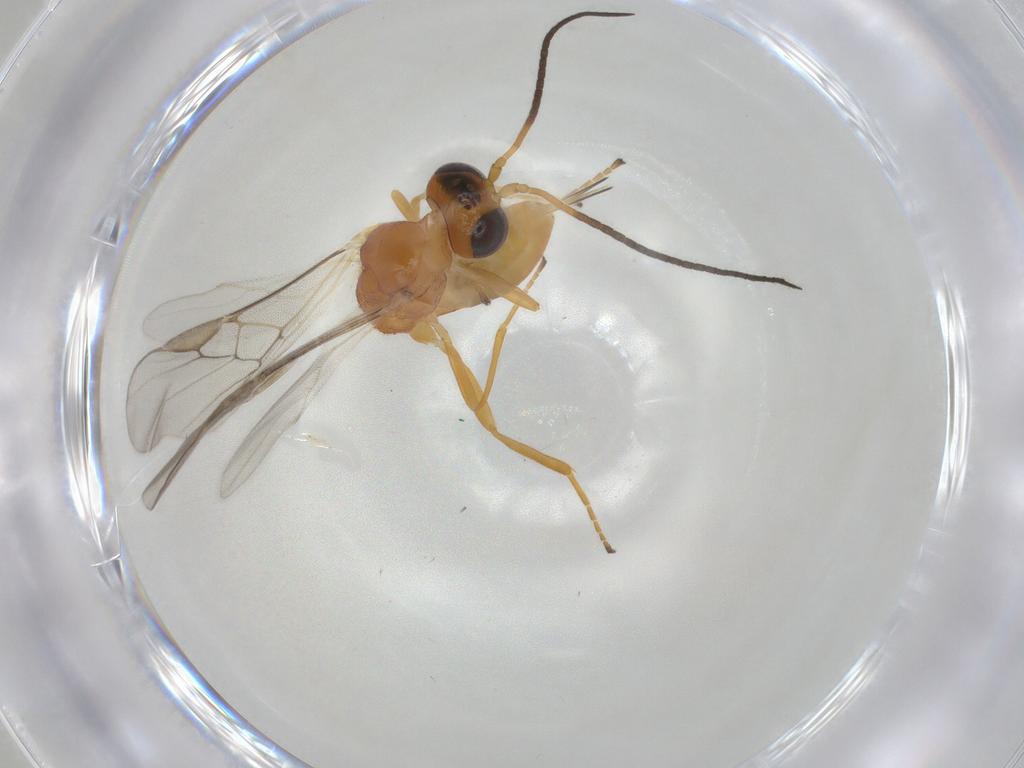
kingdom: Animalia
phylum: Arthropoda
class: Insecta
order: Hymenoptera
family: Braconidae
